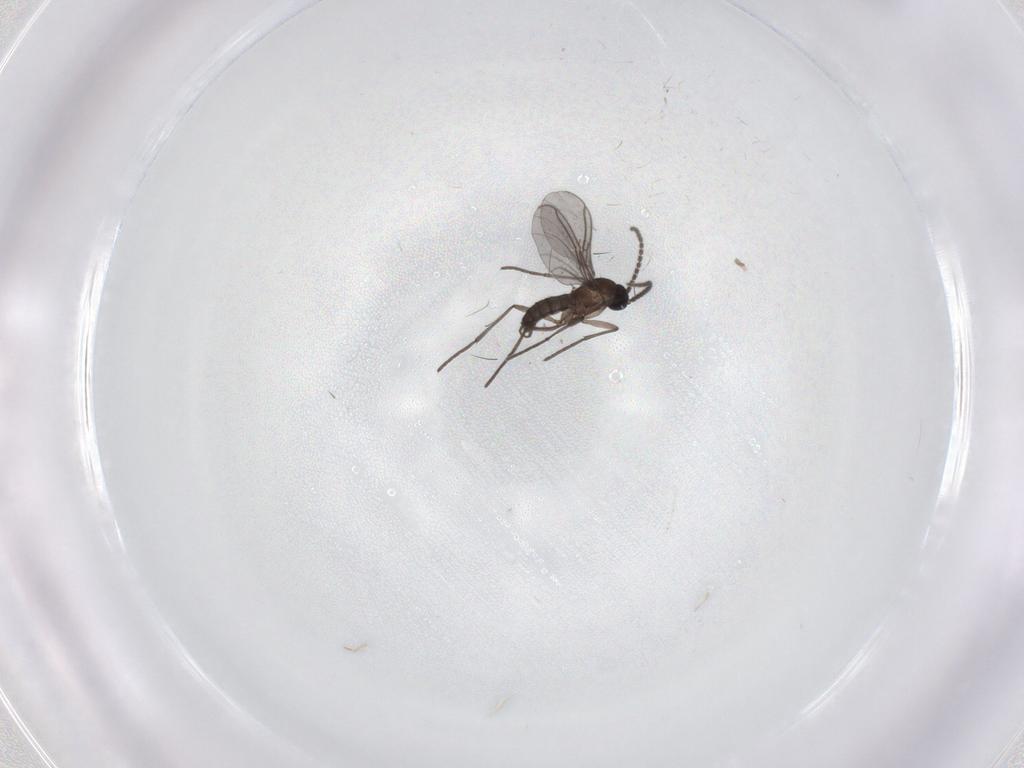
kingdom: Animalia
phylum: Arthropoda
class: Insecta
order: Diptera
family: Cecidomyiidae
